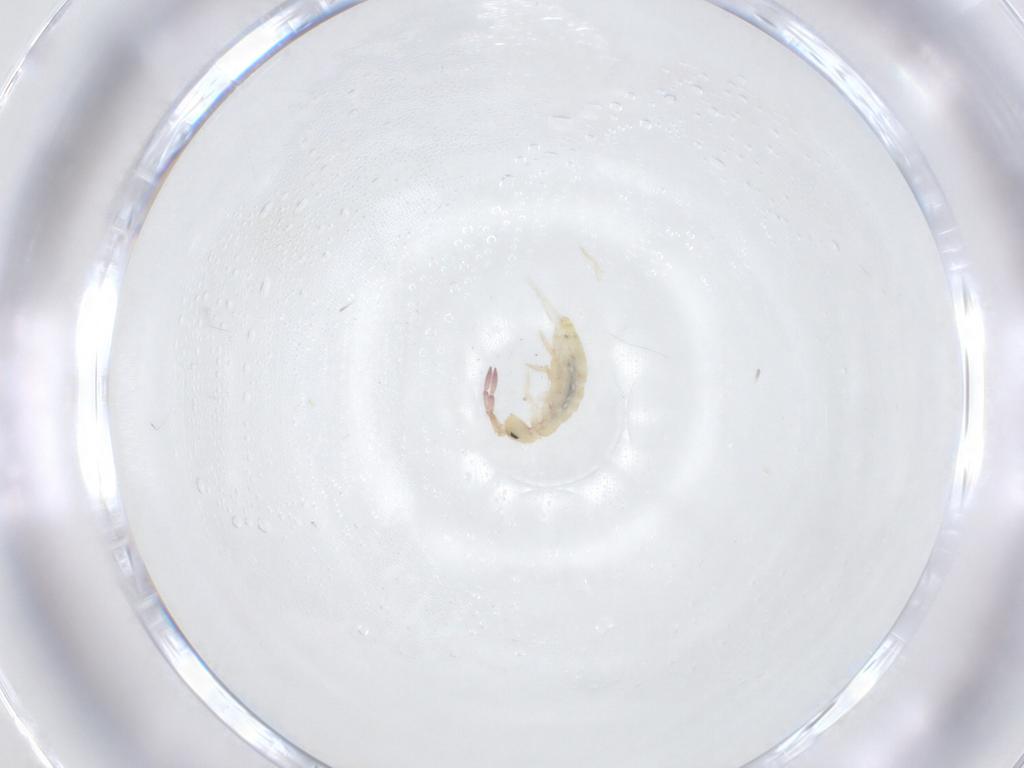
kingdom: Animalia
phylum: Arthropoda
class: Collembola
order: Entomobryomorpha
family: Entomobryidae
